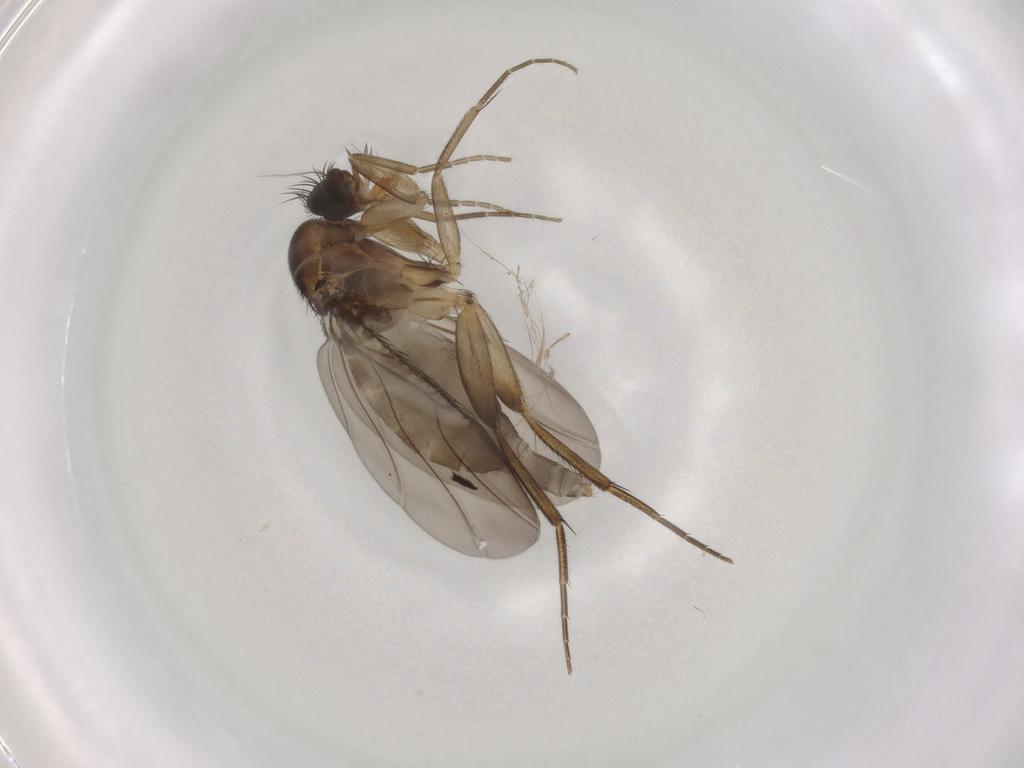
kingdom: Animalia
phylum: Arthropoda
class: Insecta
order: Diptera
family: Phoridae
